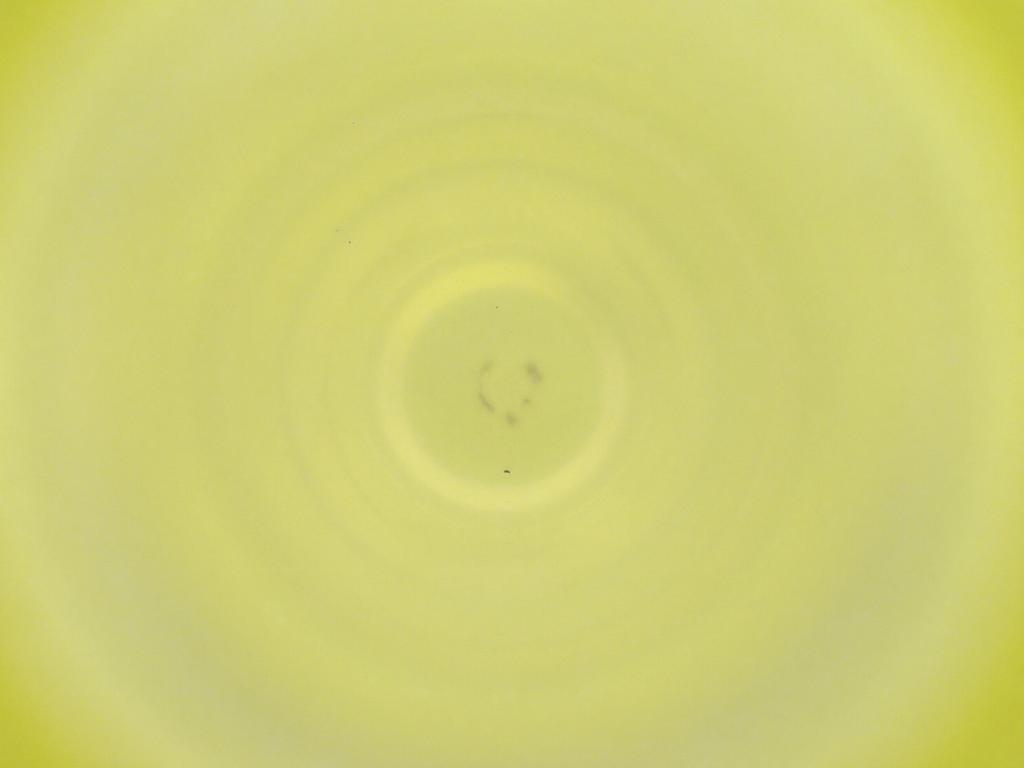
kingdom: Animalia
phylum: Arthropoda
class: Insecta
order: Diptera
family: Cecidomyiidae
